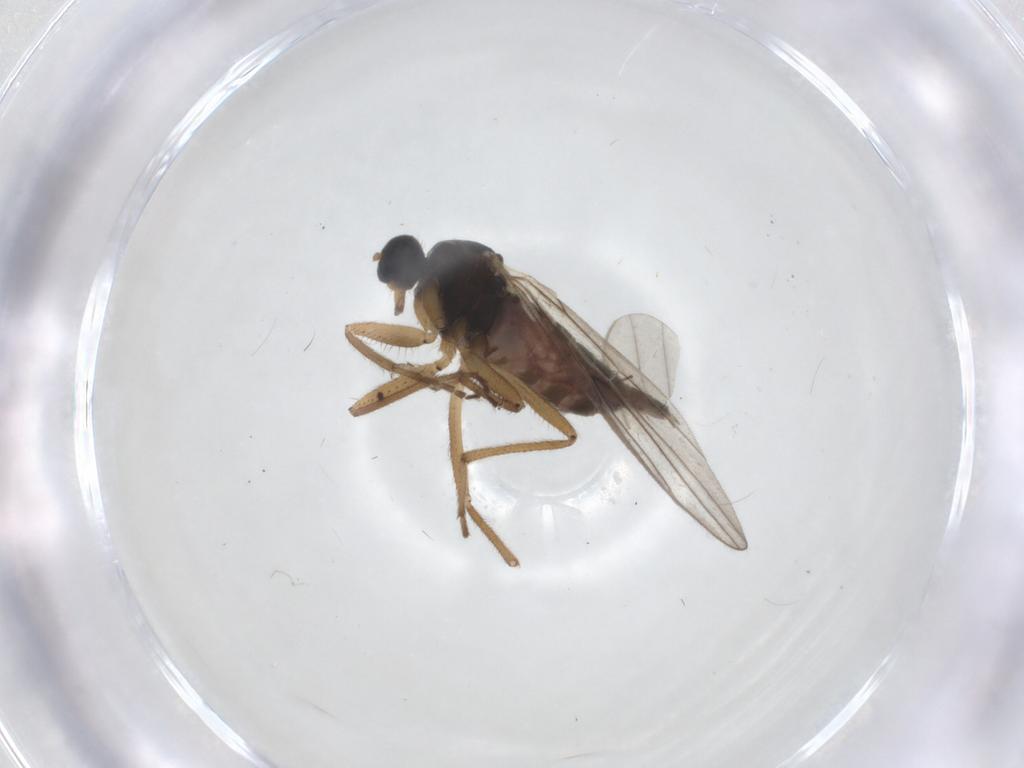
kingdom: Animalia
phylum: Arthropoda
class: Insecta
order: Diptera
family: Hybotidae
